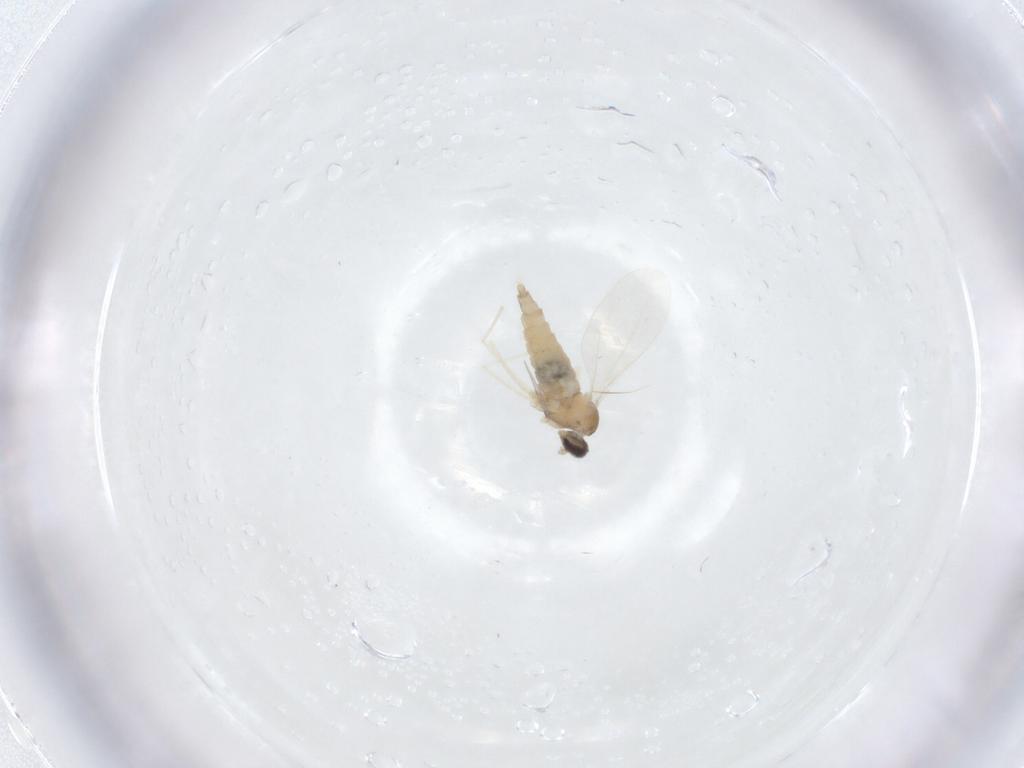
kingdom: Animalia
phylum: Arthropoda
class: Insecta
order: Diptera
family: Cecidomyiidae
